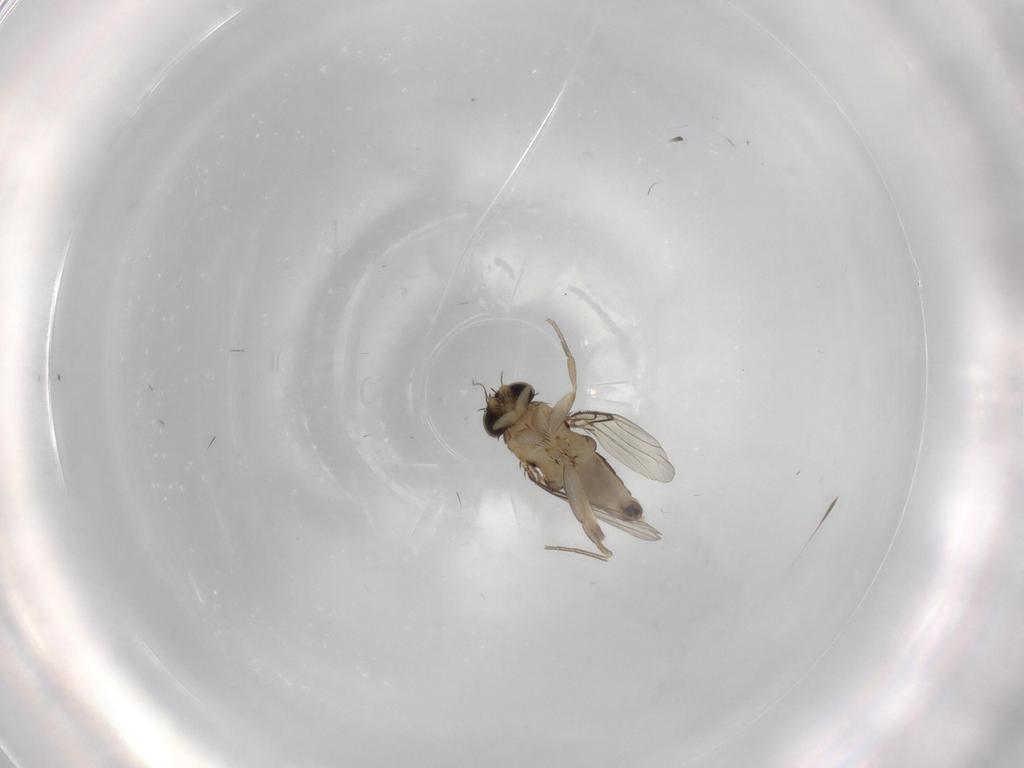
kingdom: Animalia
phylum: Arthropoda
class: Insecta
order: Diptera
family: Phoridae
